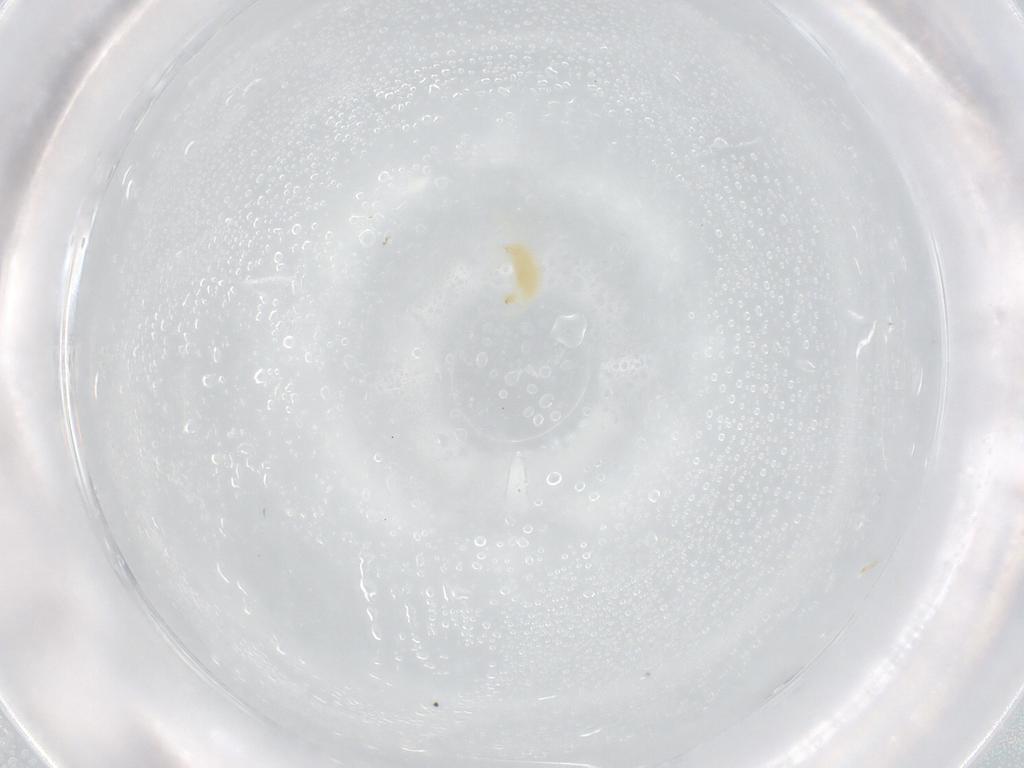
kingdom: Animalia
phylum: Arthropoda
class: Arachnida
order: Trombidiformes
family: Tetranychidae
